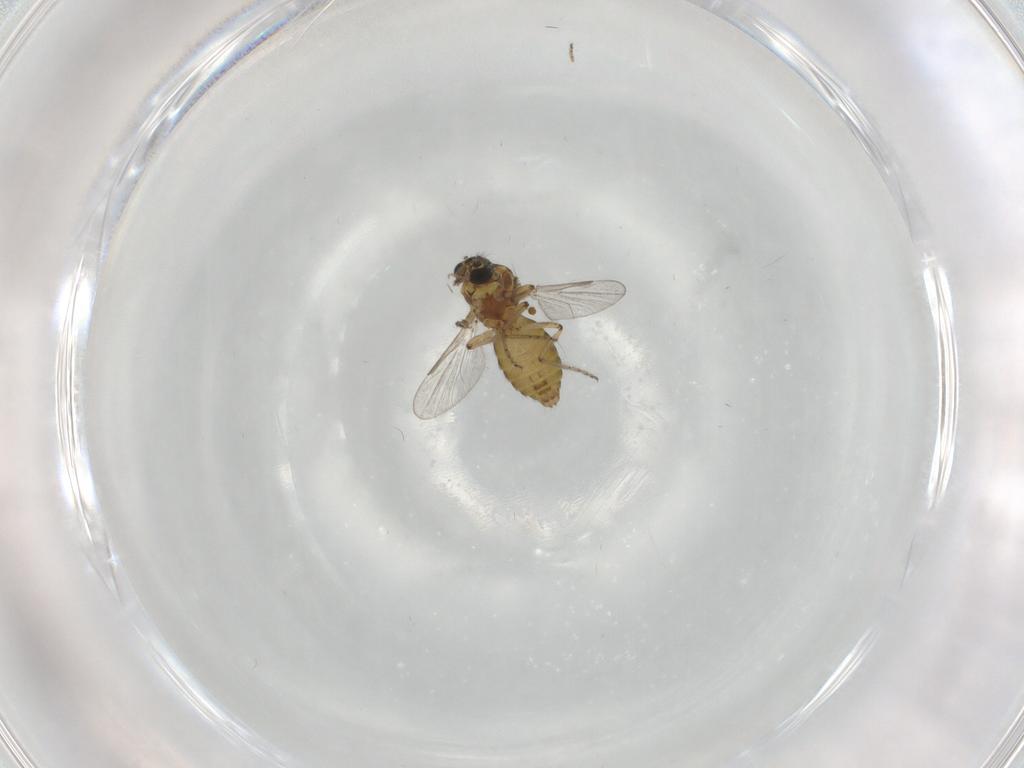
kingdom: Animalia
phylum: Arthropoda
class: Insecta
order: Diptera
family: Ceratopogonidae
